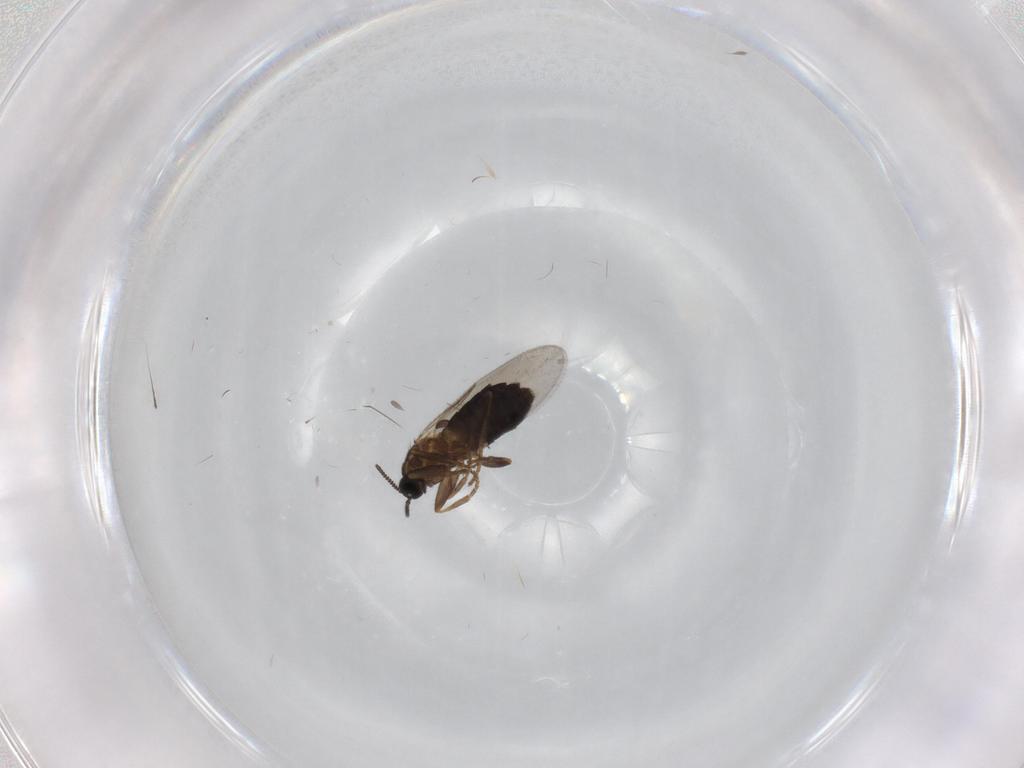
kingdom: Animalia
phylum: Arthropoda
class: Insecta
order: Diptera
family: Scatopsidae
